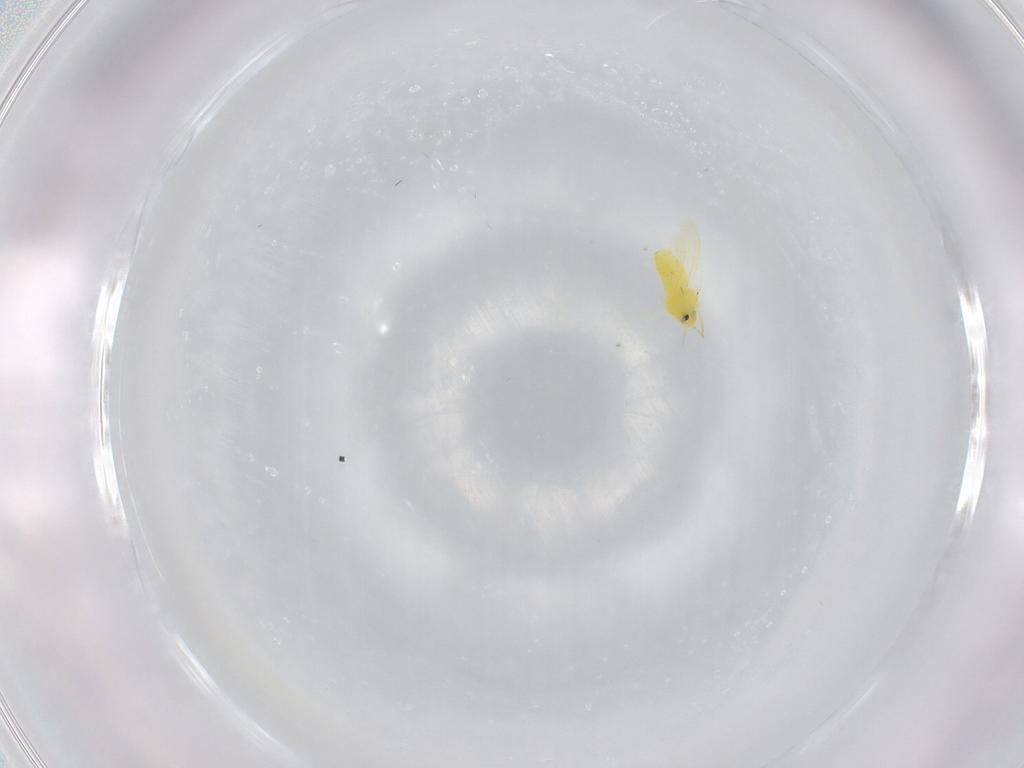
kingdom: Animalia
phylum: Arthropoda
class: Insecta
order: Hemiptera
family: Aleyrodidae
